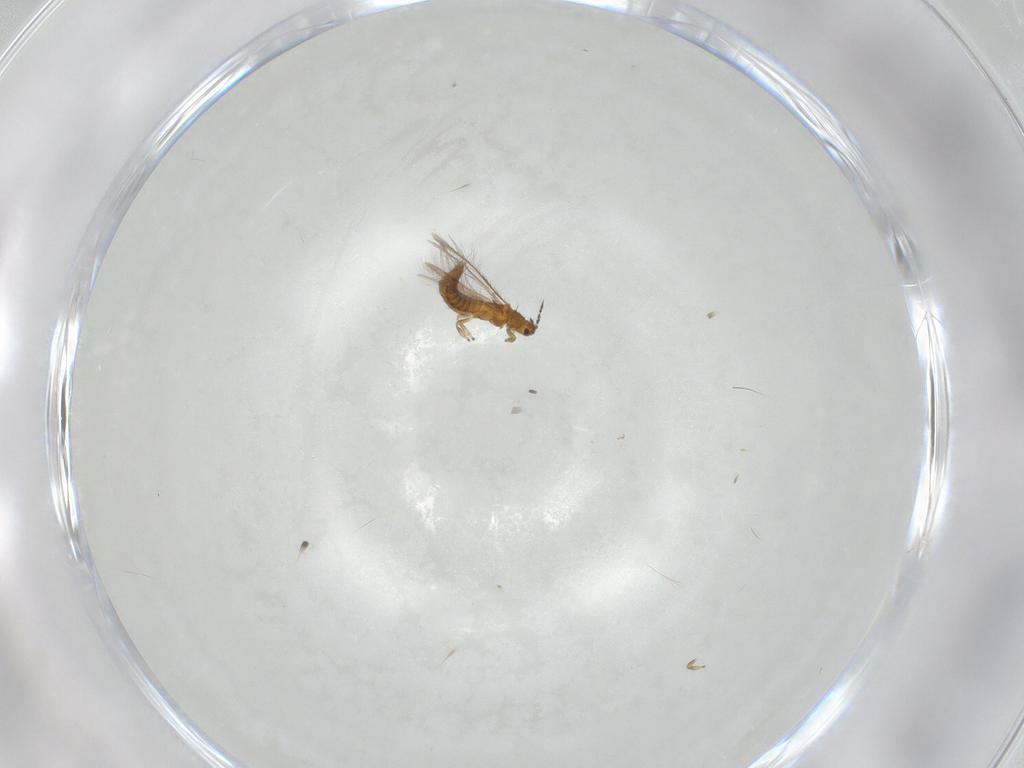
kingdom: Animalia
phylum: Arthropoda
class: Insecta
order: Thysanoptera
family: Thripidae
